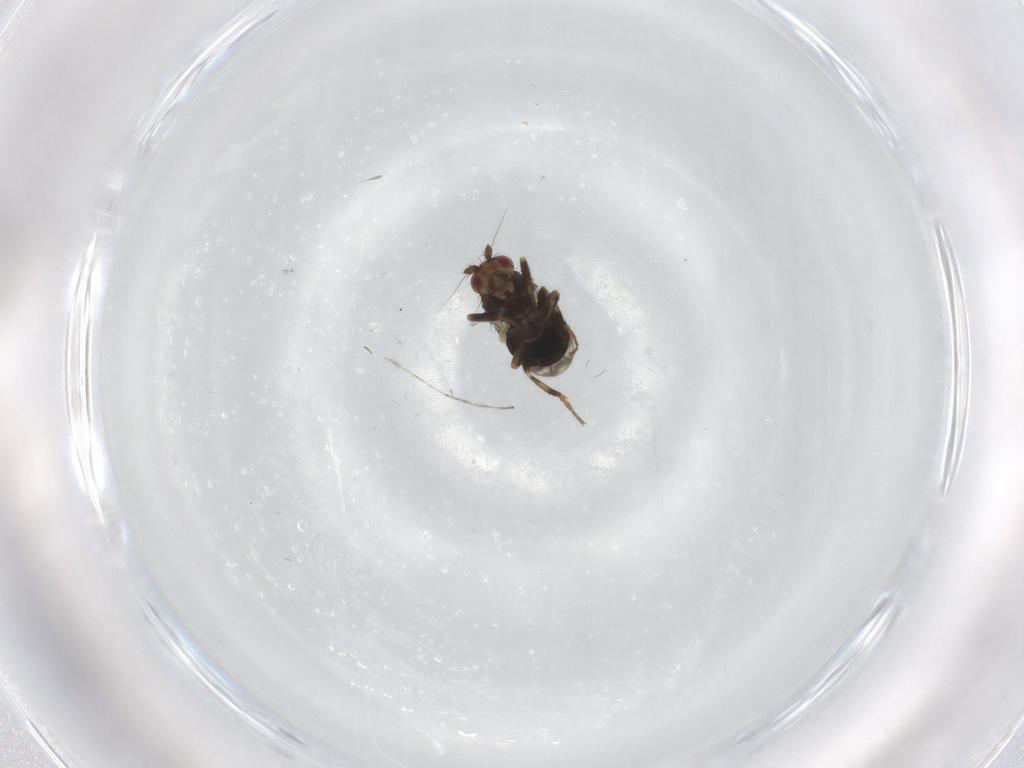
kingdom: Animalia
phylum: Arthropoda
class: Insecta
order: Diptera
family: Sphaeroceridae
